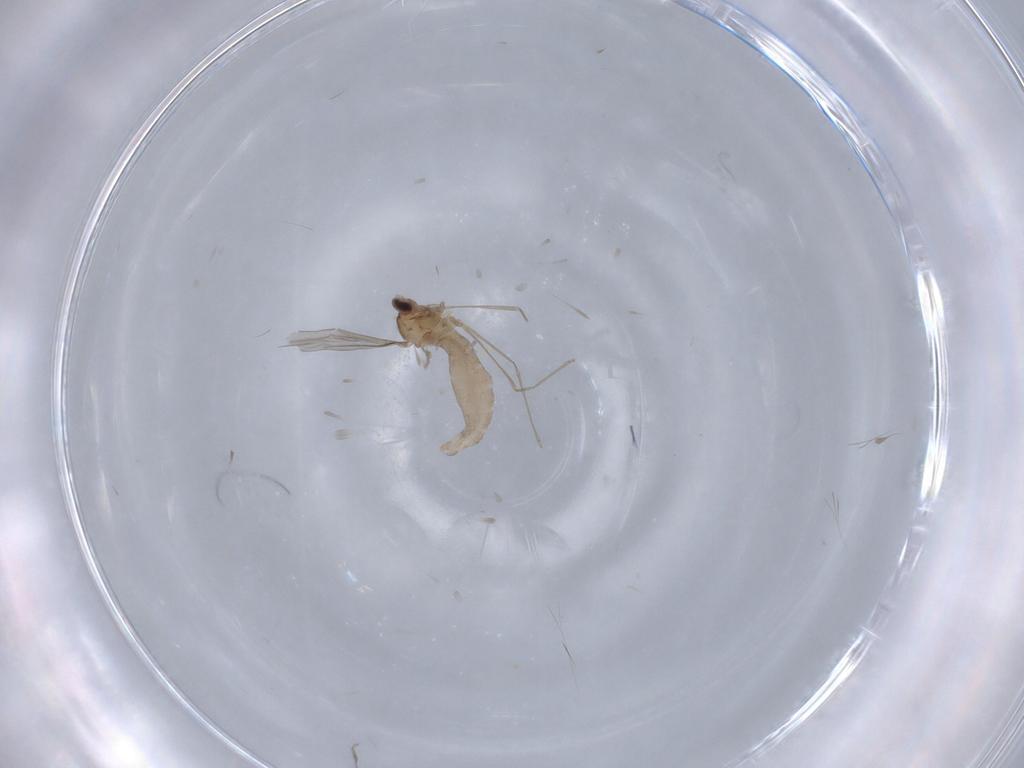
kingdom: Animalia
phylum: Arthropoda
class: Insecta
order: Diptera
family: Cecidomyiidae
